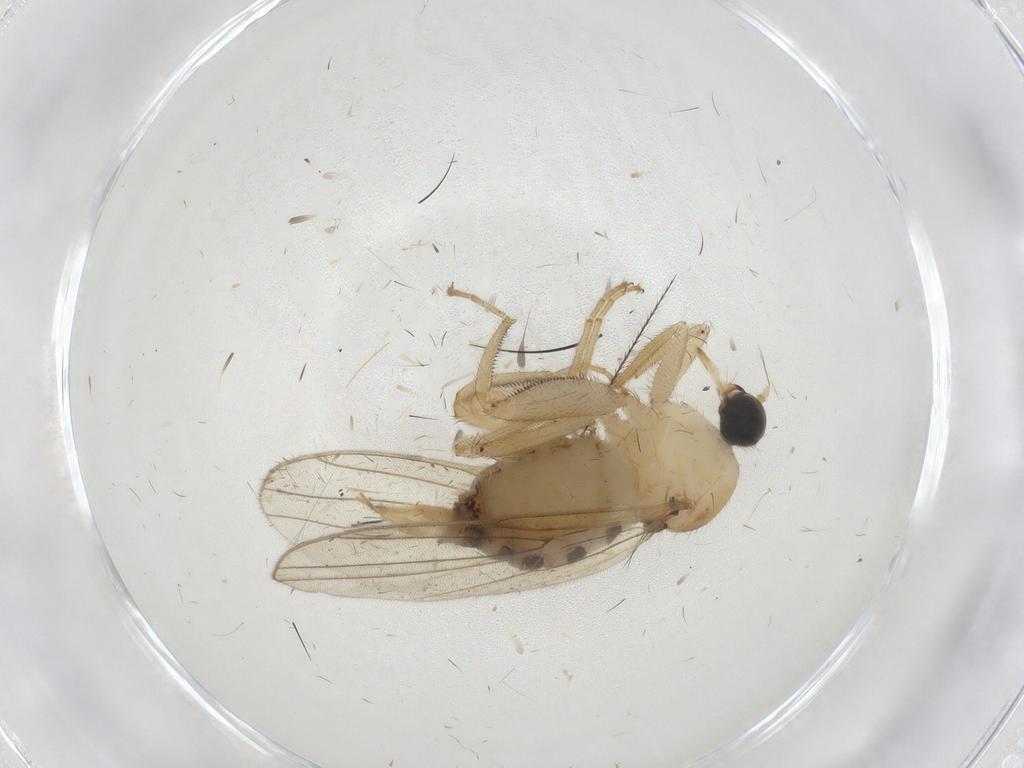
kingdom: Animalia
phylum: Arthropoda
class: Insecta
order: Diptera
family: Hybotidae
